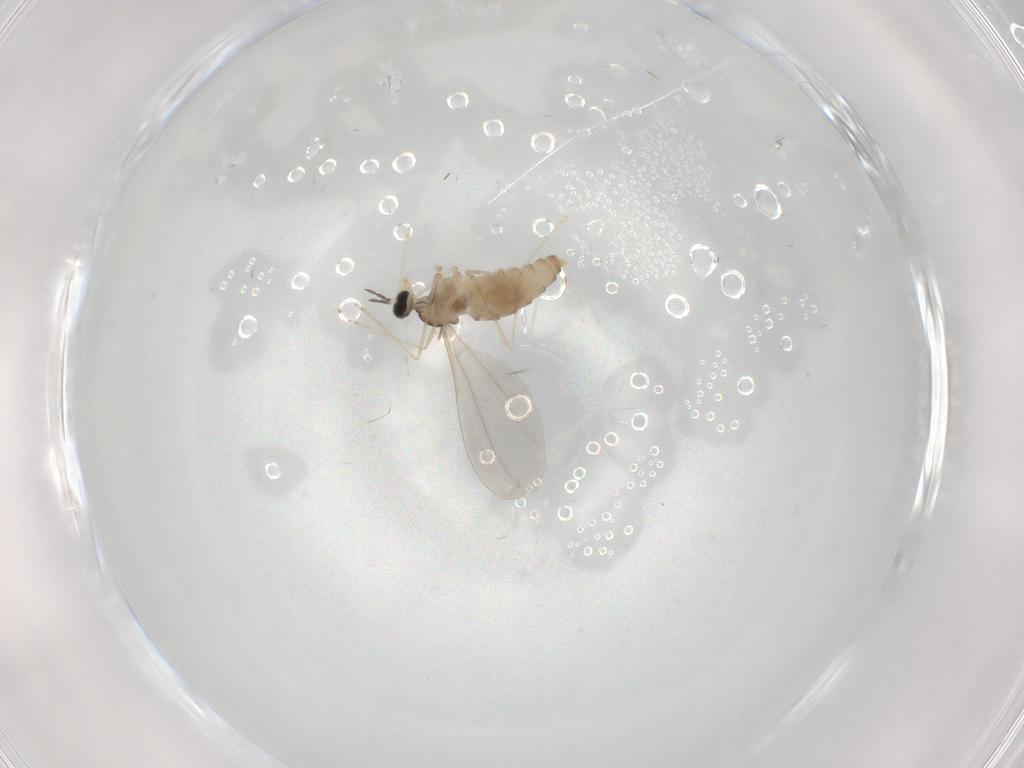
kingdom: Animalia
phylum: Arthropoda
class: Insecta
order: Diptera
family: Cecidomyiidae
